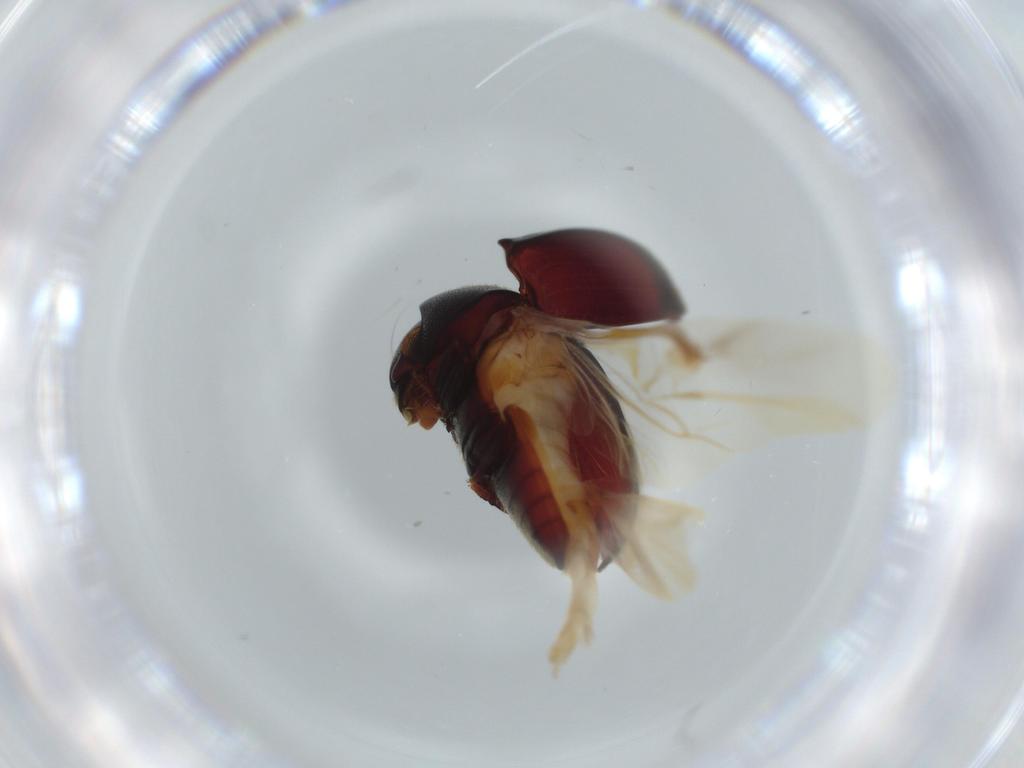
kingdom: Animalia
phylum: Arthropoda
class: Insecta
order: Coleoptera
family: Ptinidae
